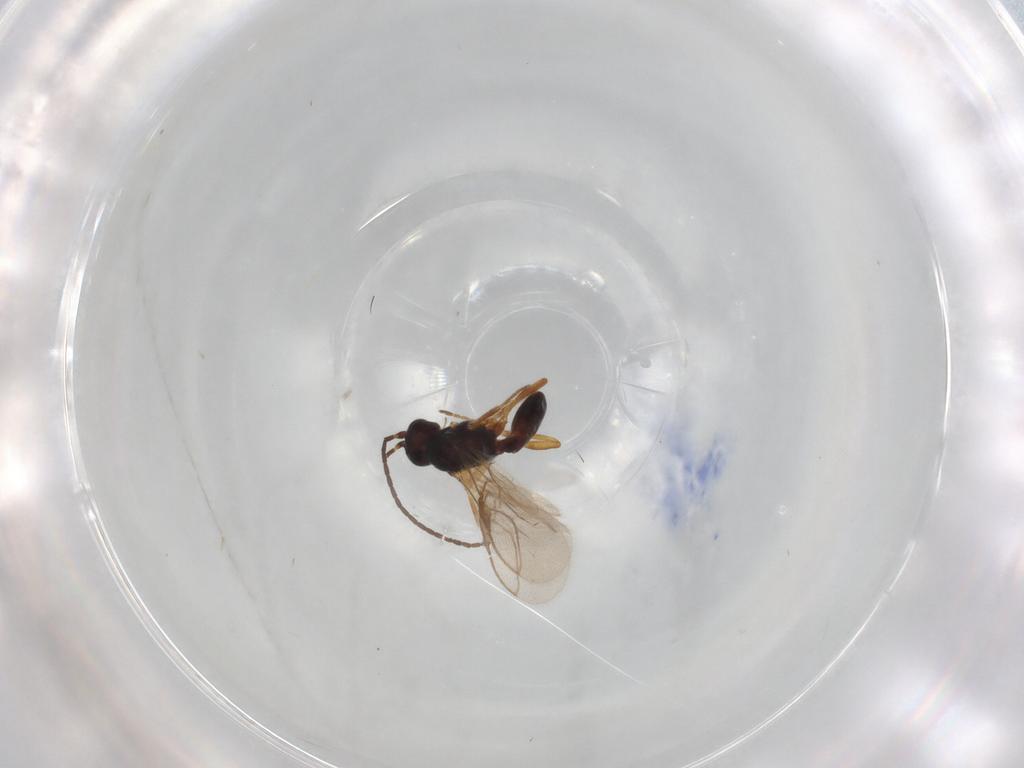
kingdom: Animalia
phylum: Arthropoda
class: Insecta
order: Hymenoptera
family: Braconidae
